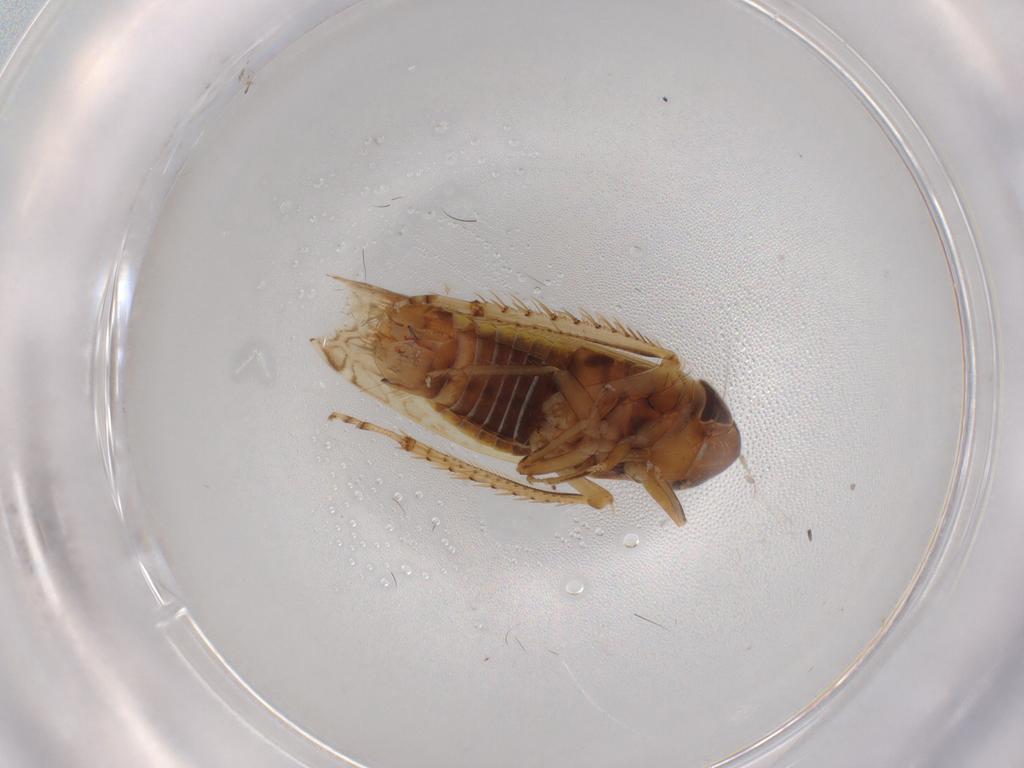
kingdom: Animalia
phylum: Arthropoda
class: Insecta
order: Hemiptera
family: Cicadellidae
